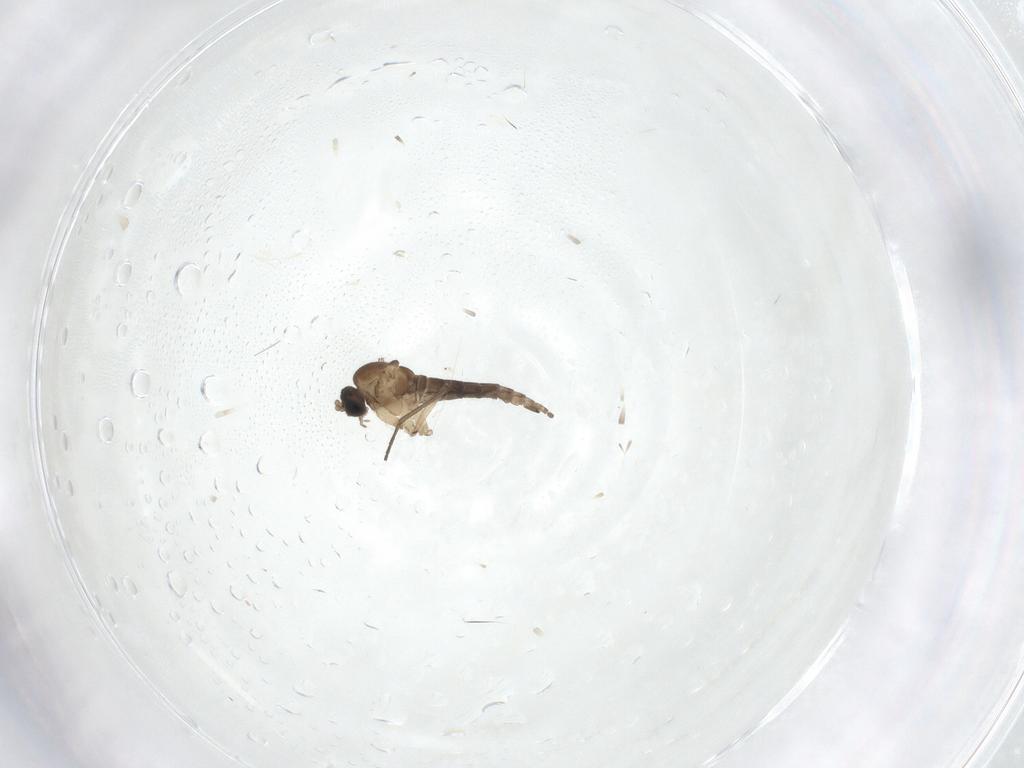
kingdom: Animalia
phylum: Arthropoda
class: Insecta
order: Diptera
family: Sciaridae
